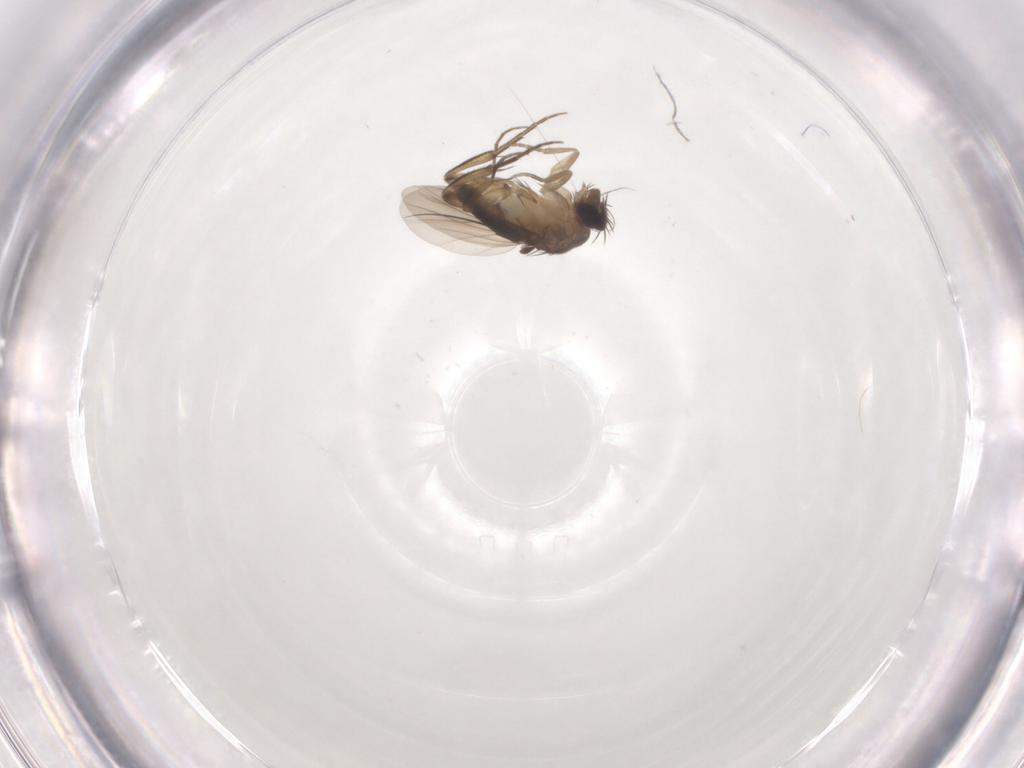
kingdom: Animalia
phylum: Arthropoda
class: Insecta
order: Diptera
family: Phoridae
